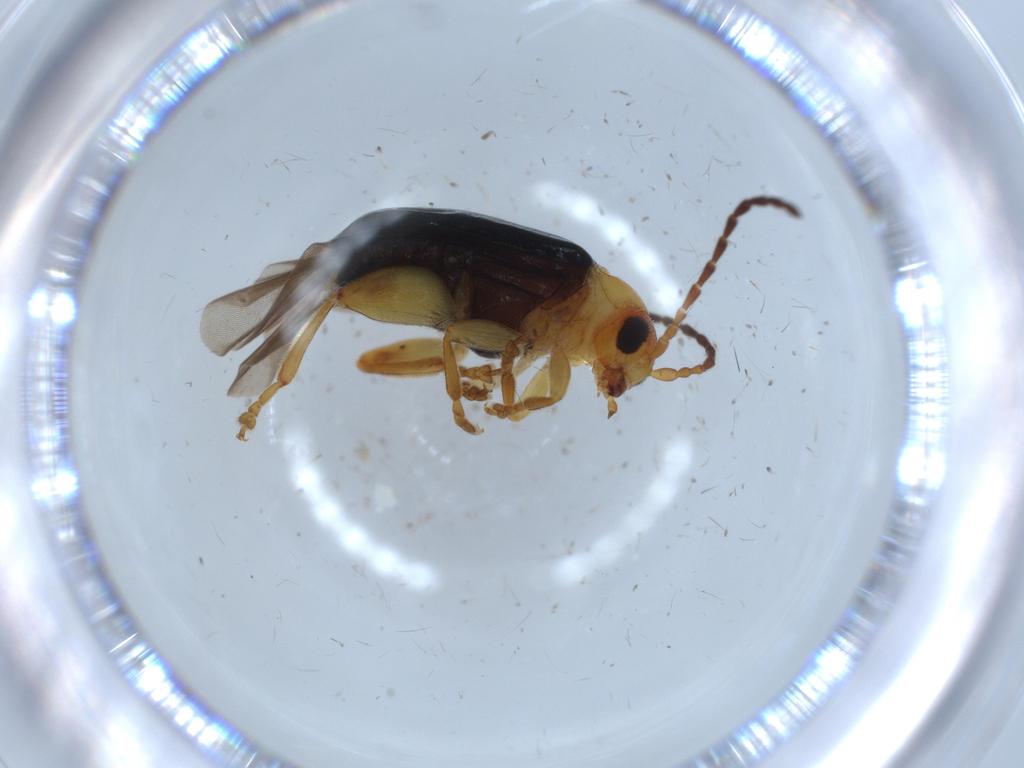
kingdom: Animalia
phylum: Arthropoda
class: Insecta
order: Coleoptera
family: Chrysomelidae
